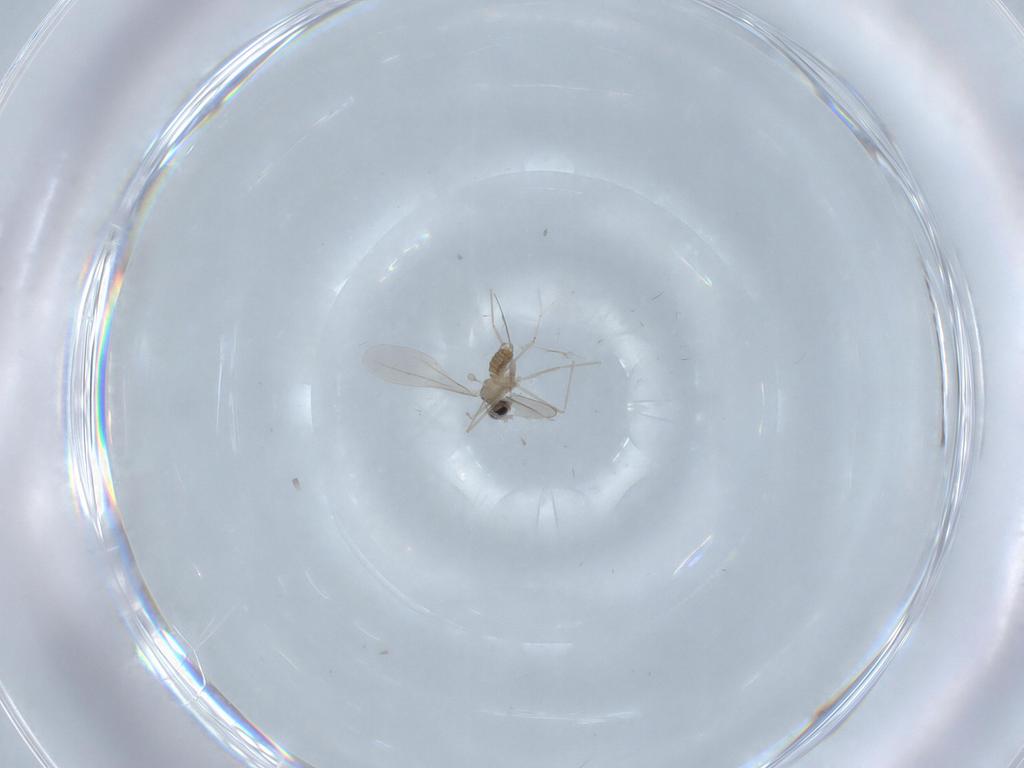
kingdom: Animalia
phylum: Arthropoda
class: Insecta
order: Diptera
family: Cecidomyiidae
